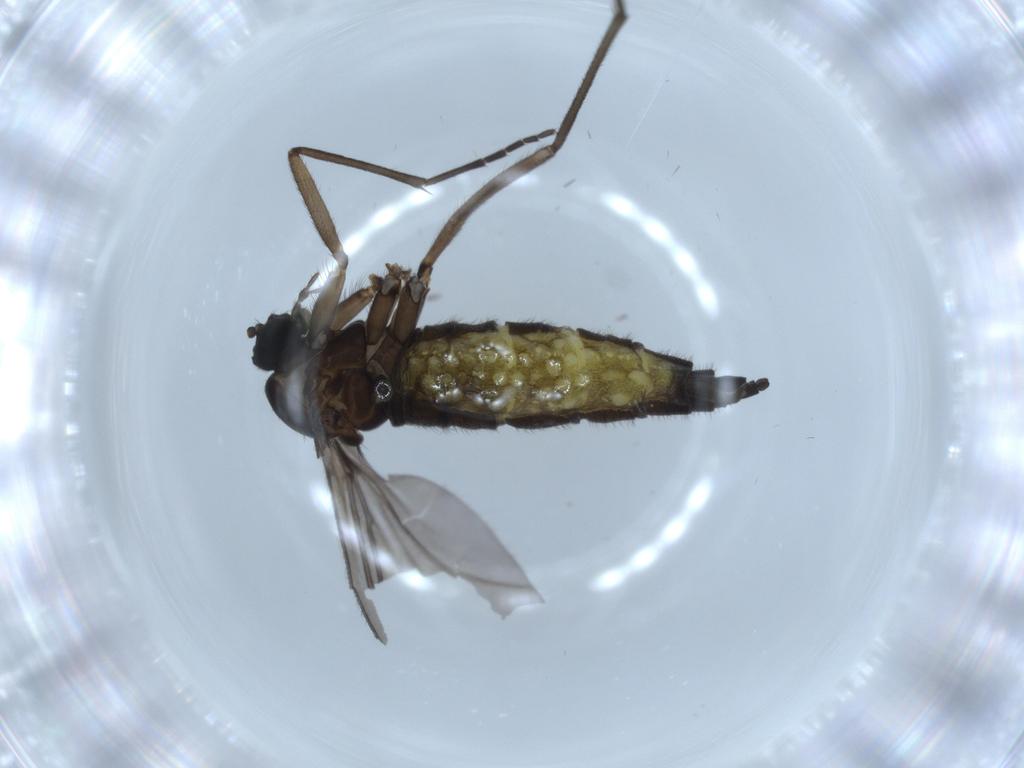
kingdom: Animalia
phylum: Arthropoda
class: Insecta
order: Diptera
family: Sciaridae
